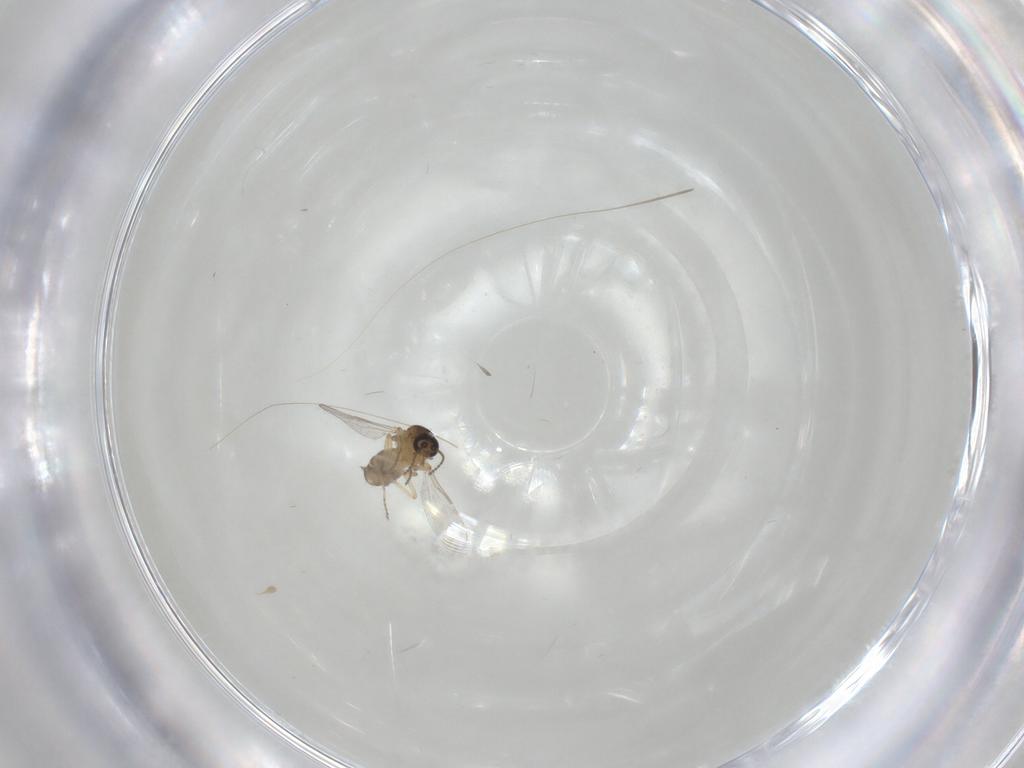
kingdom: Animalia
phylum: Arthropoda
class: Insecta
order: Diptera
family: Ceratopogonidae
